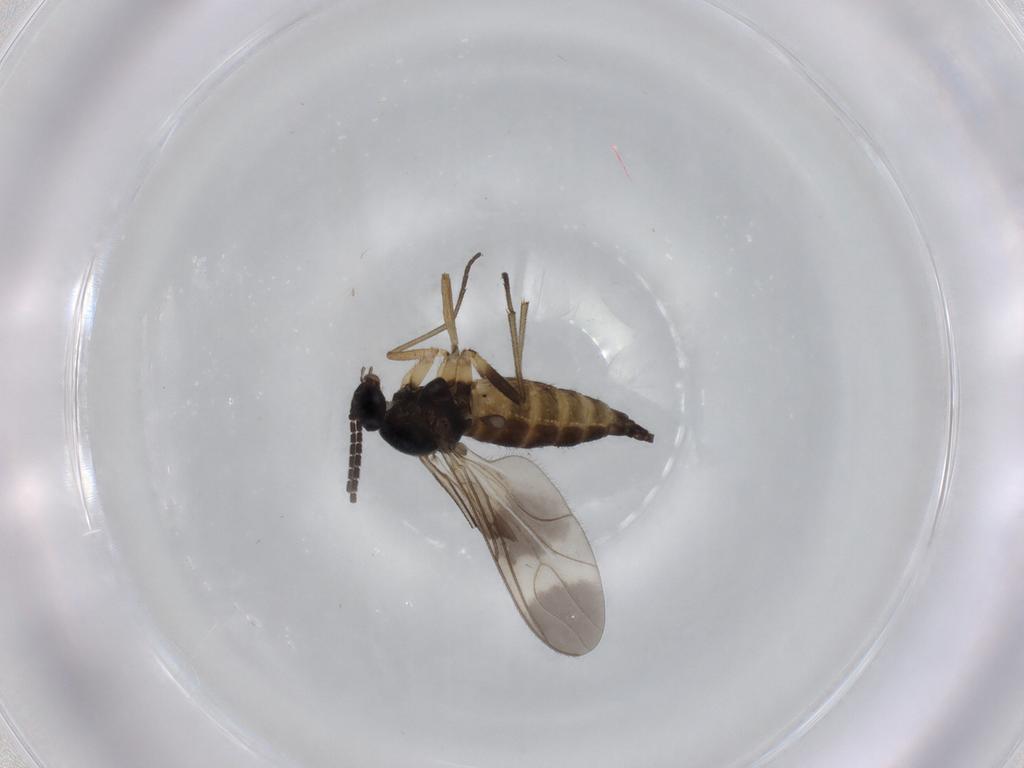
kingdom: Animalia
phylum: Arthropoda
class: Insecta
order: Diptera
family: Sciaridae
